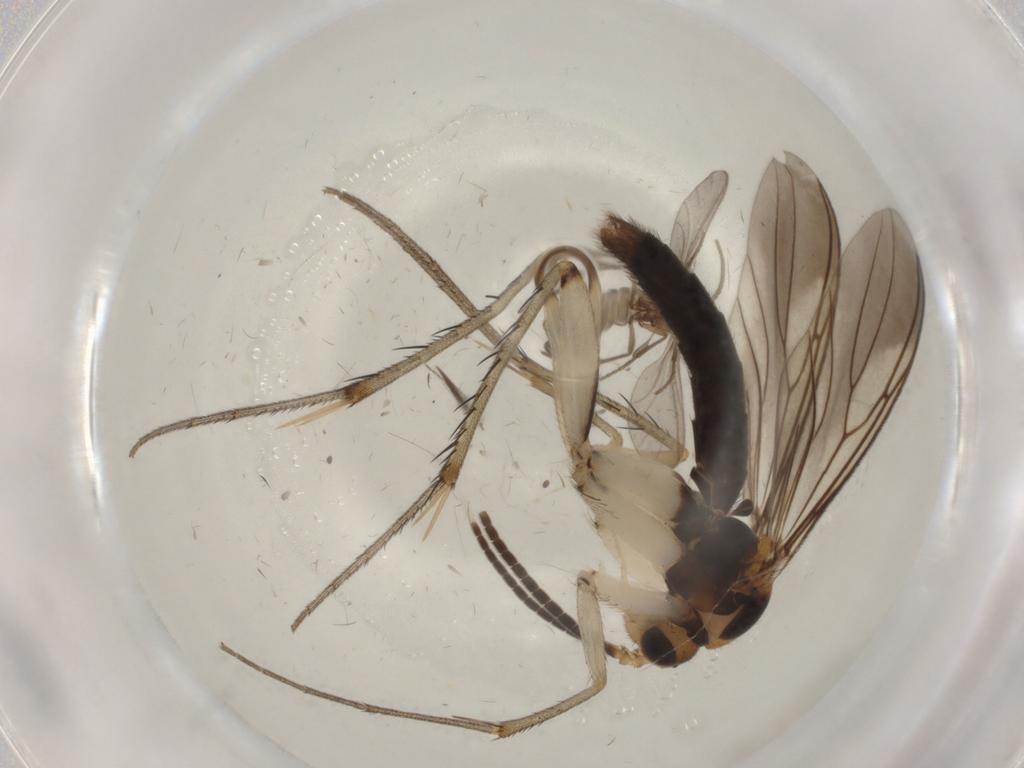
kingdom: Animalia
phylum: Arthropoda
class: Insecta
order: Diptera
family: Sciaridae
